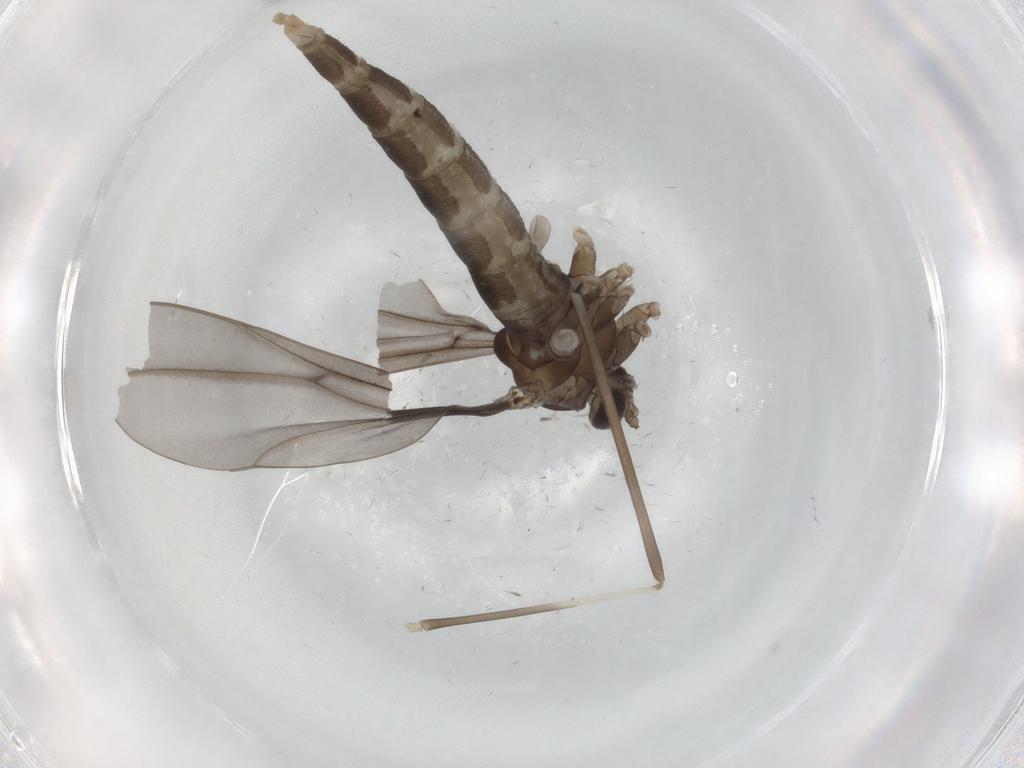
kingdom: Animalia
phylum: Arthropoda
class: Insecta
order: Diptera
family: Cecidomyiidae
